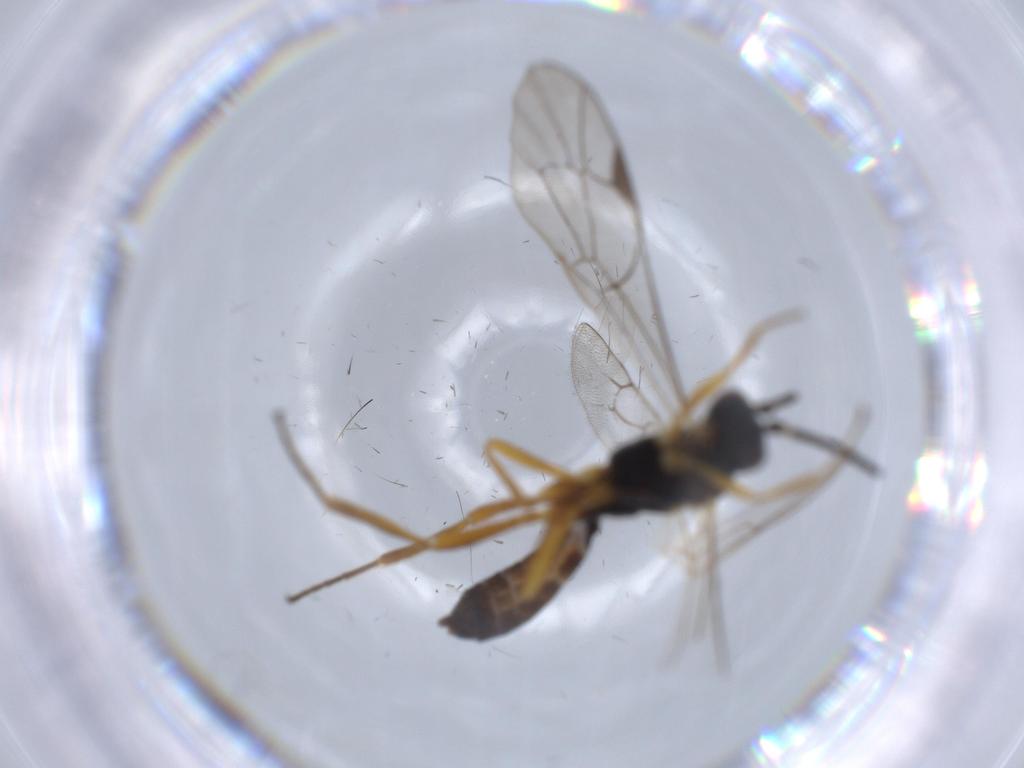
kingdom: Animalia
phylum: Arthropoda
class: Insecta
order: Hymenoptera
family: Ichneumonidae
